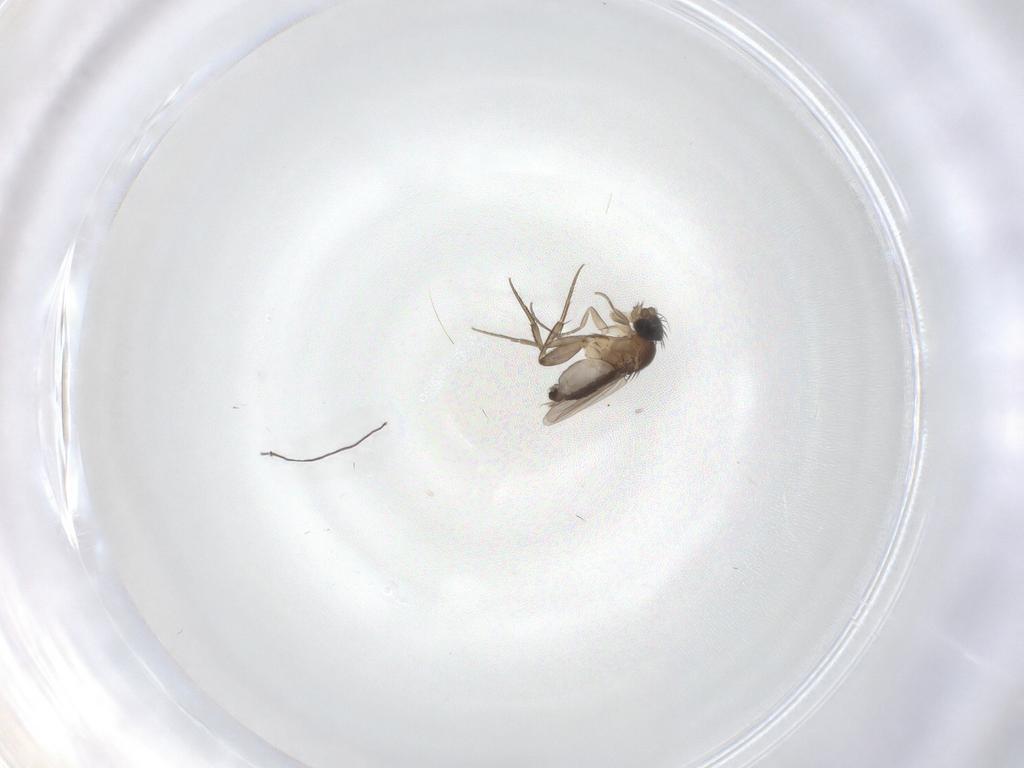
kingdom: Animalia
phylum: Arthropoda
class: Insecta
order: Diptera
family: Phoridae
